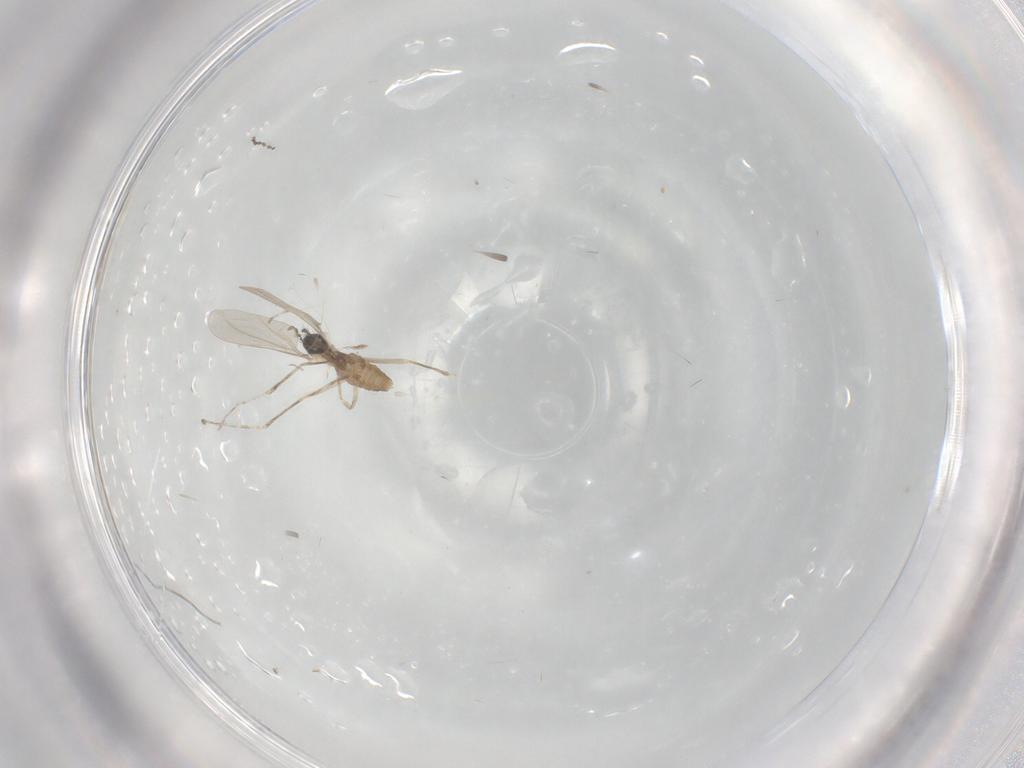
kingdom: Animalia
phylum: Arthropoda
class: Insecta
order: Diptera
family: Cecidomyiidae
